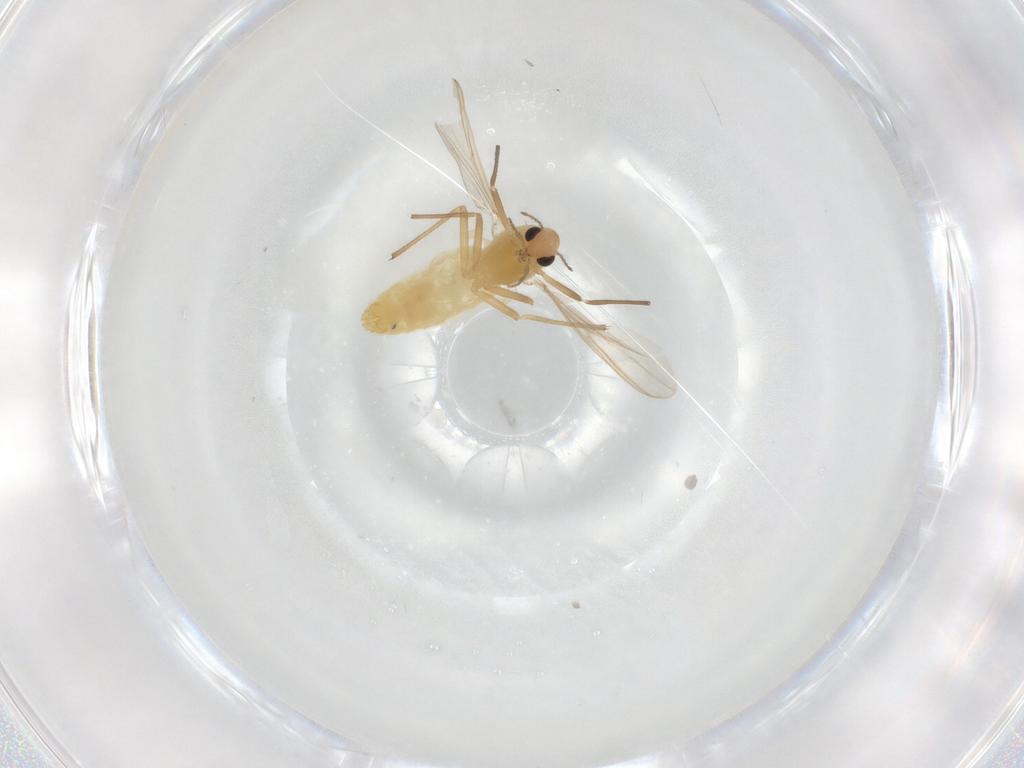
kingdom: Animalia
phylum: Arthropoda
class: Insecta
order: Diptera
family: Chironomidae
